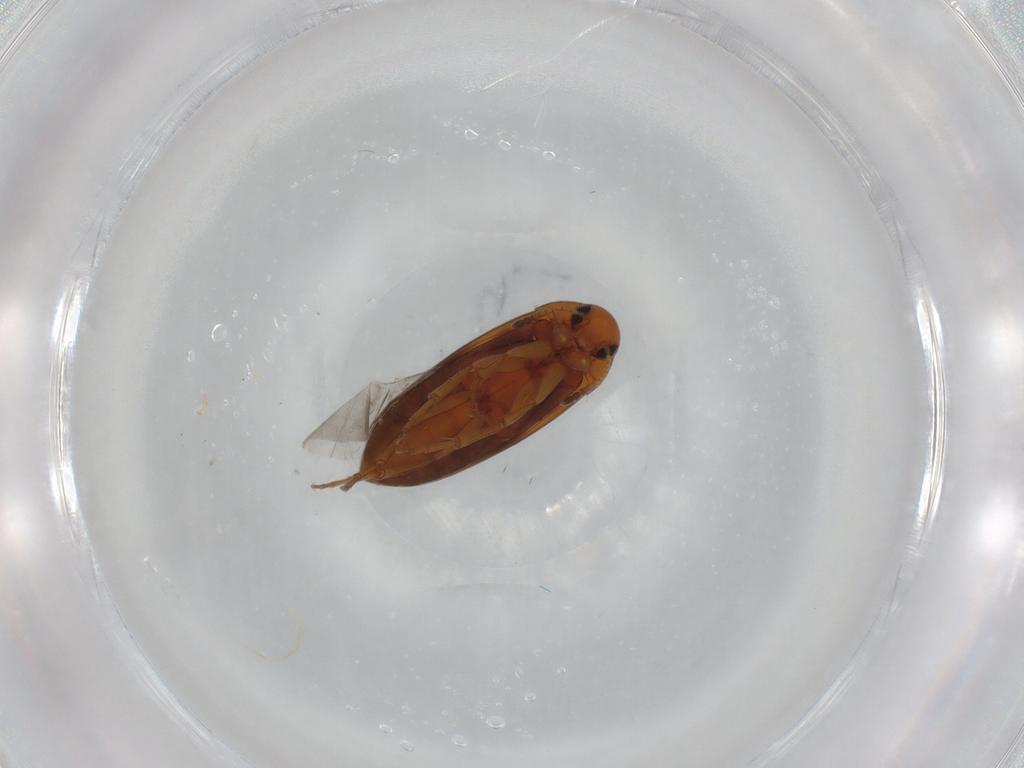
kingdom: Animalia
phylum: Arthropoda
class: Insecta
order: Coleoptera
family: Scraptiidae
